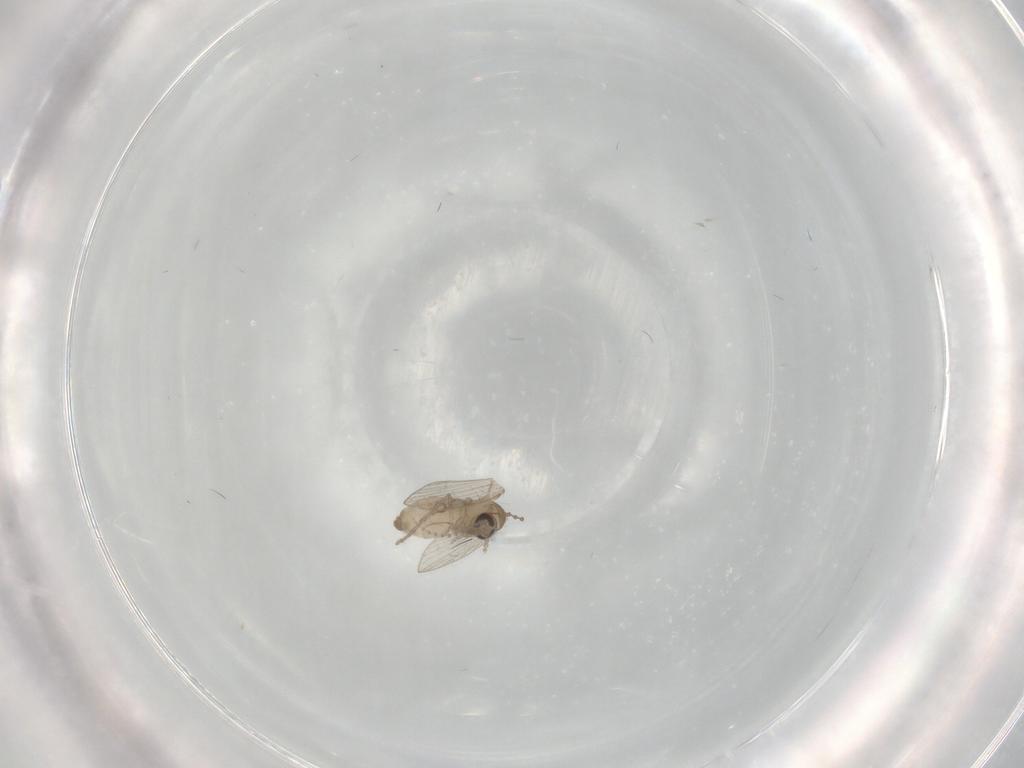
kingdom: Animalia
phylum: Arthropoda
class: Insecta
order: Diptera
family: Psychodidae
